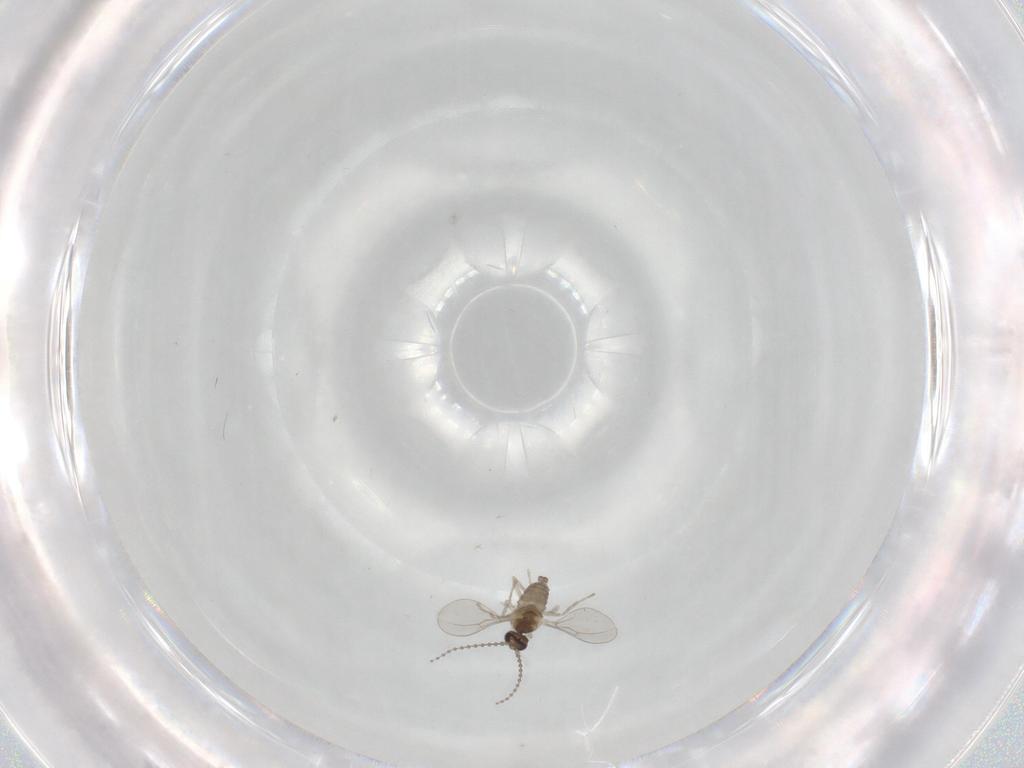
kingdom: Animalia
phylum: Arthropoda
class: Insecta
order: Diptera
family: Cecidomyiidae
